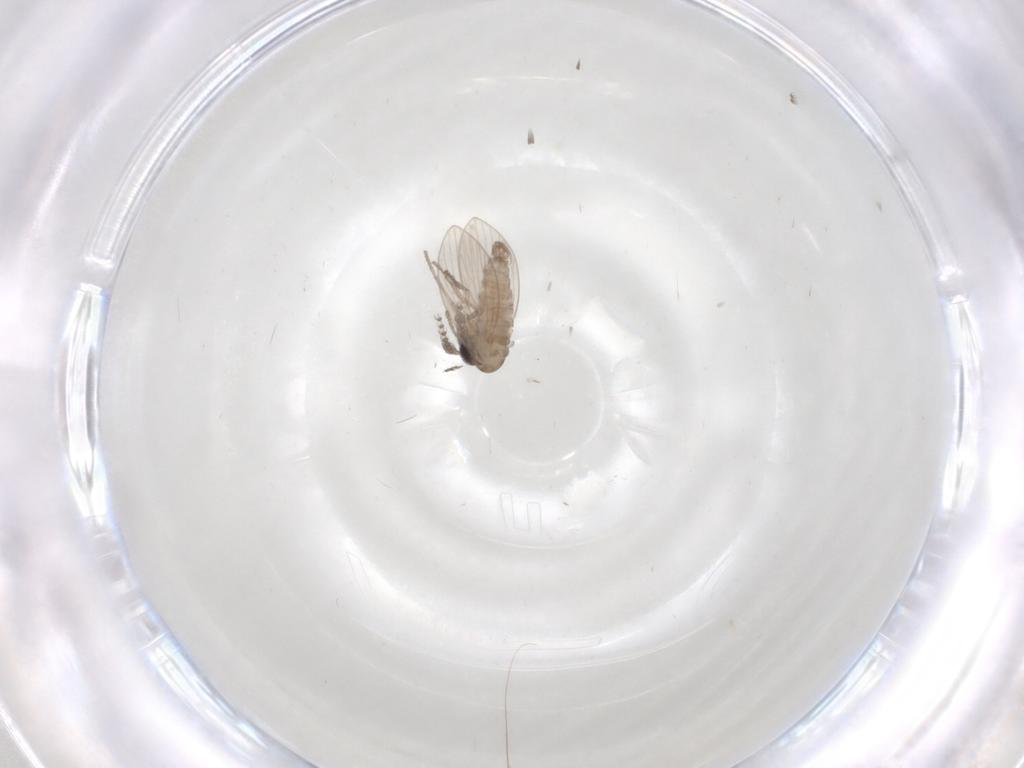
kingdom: Animalia
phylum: Arthropoda
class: Insecta
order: Diptera
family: Psychodidae
